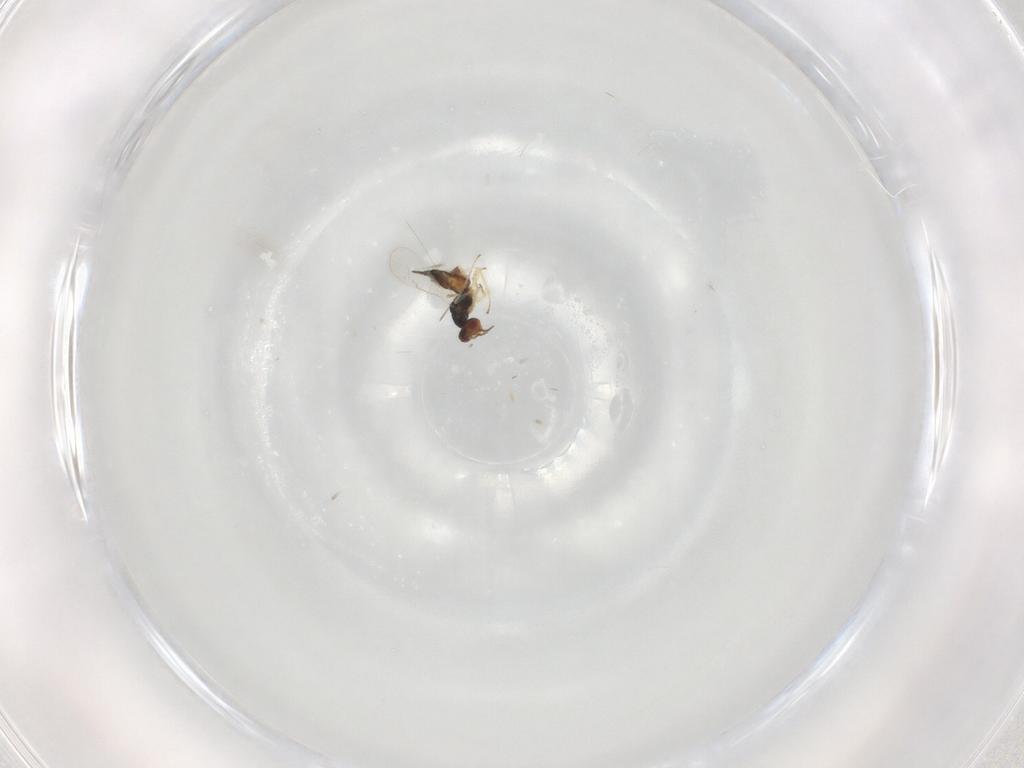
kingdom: Animalia
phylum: Arthropoda
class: Insecta
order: Hymenoptera
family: Eulophidae
